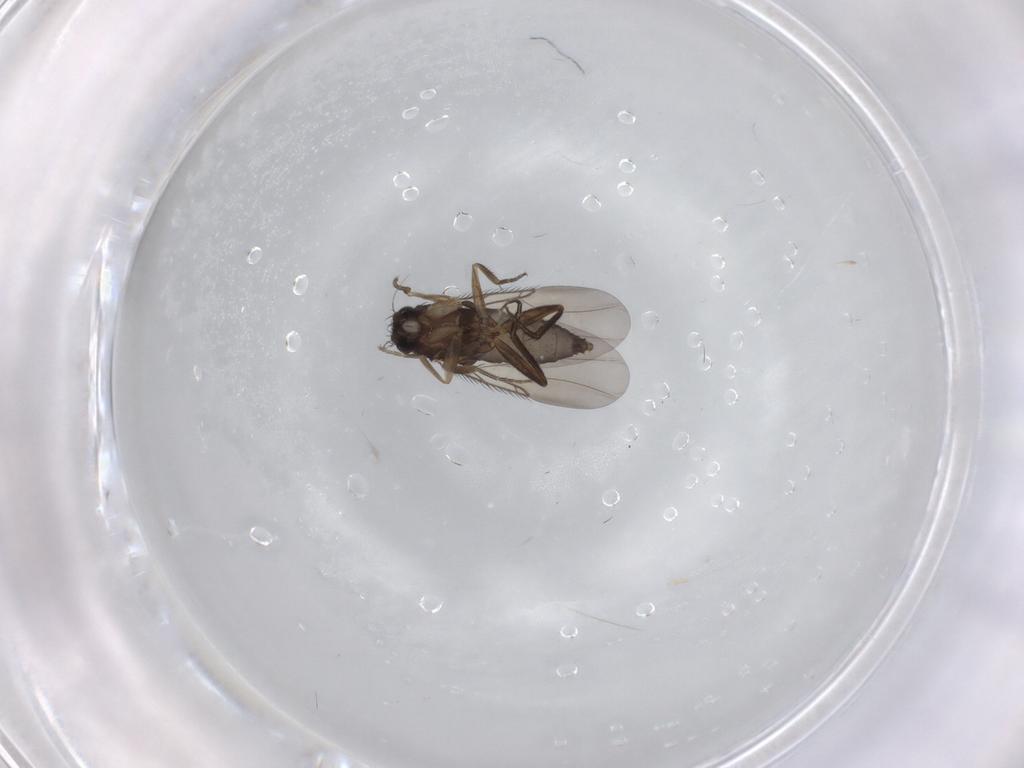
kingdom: Animalia
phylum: Arthropoda
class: Insecta
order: Diptera
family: Phoridae
